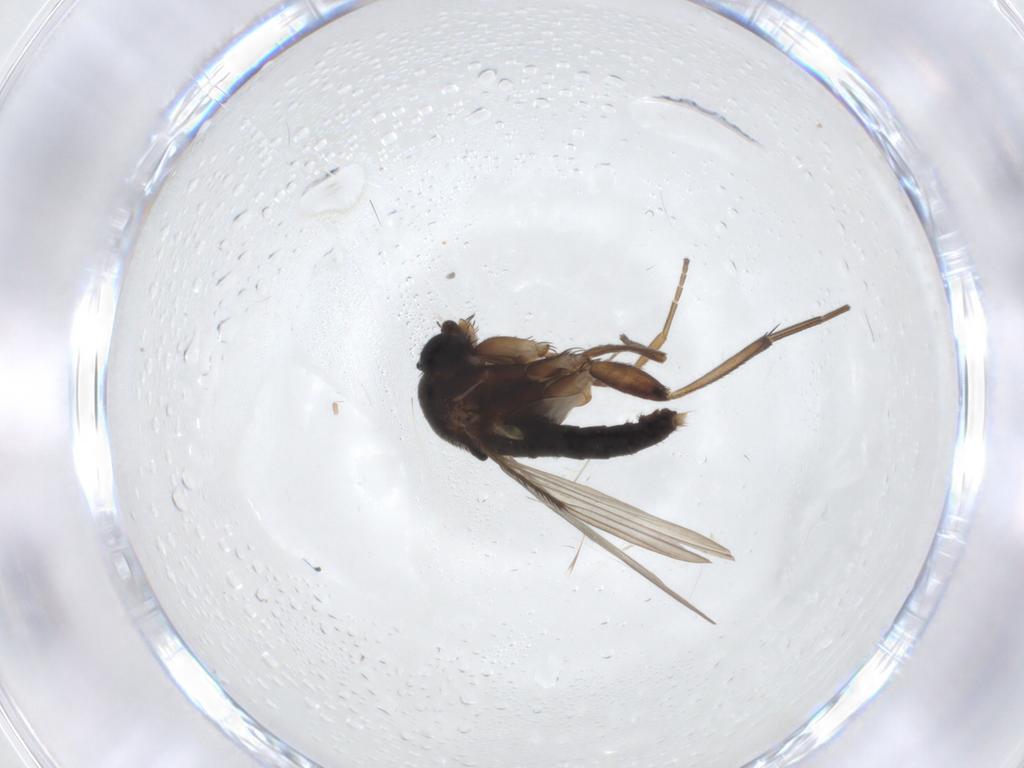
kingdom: Animalia
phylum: Arthropoda
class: Insecta
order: Diptera
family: Phoridae
